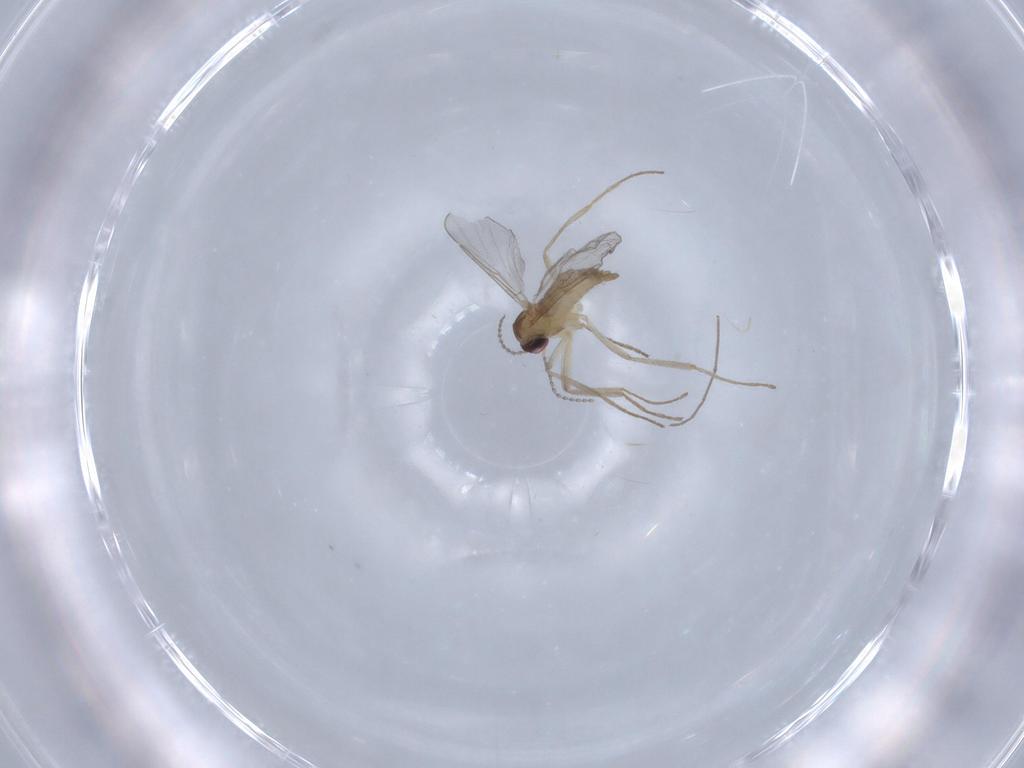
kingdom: Animalia
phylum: Arthropoda
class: Insecta
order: Diptera
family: Cecidomyiidae
